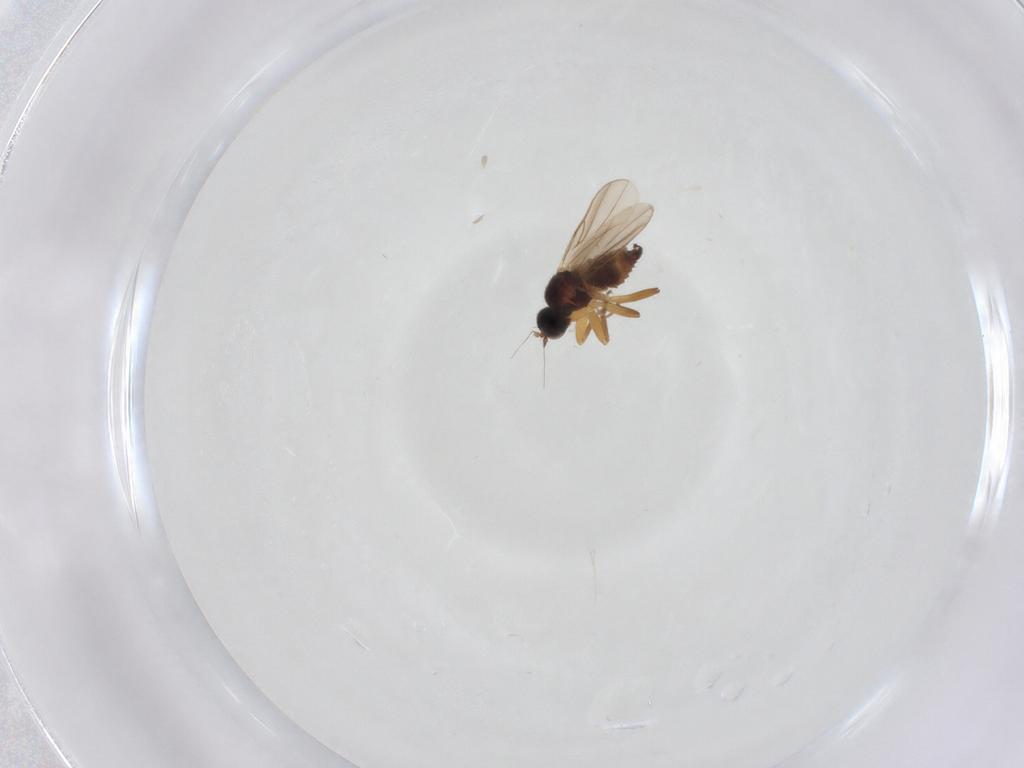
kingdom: Animalia
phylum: Arthropoda
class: Insecta
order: Diptera
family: Hybotidae
